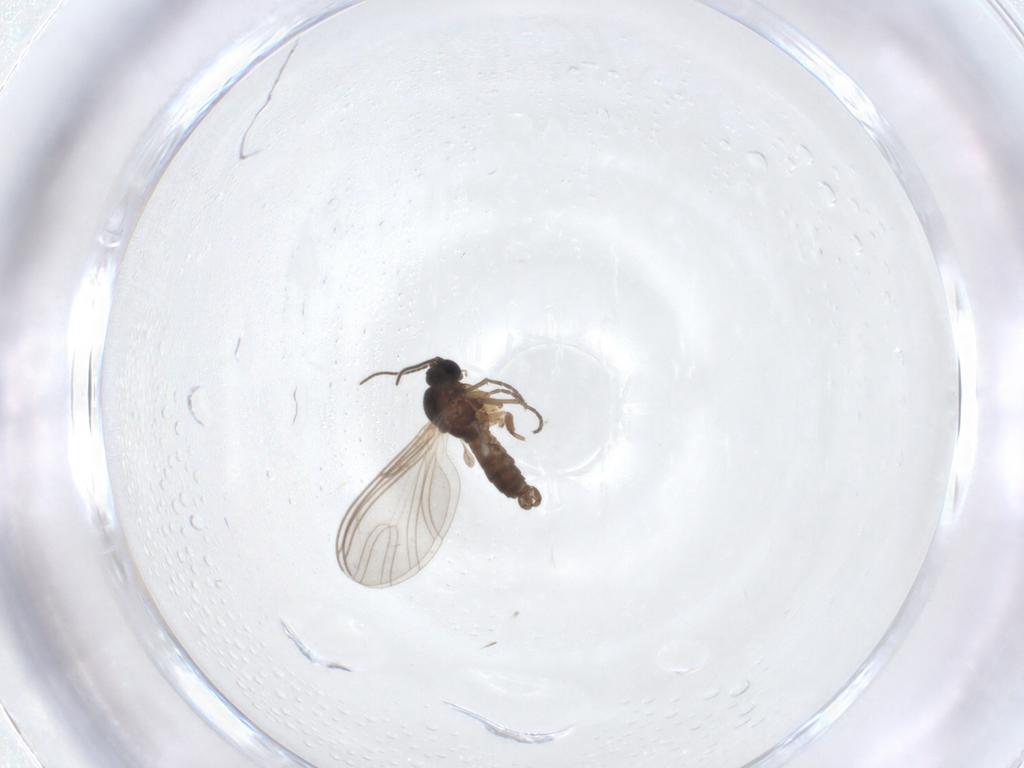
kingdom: Animalia
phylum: Arthropoda
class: Insecta
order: Diptera
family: Sciaridae
